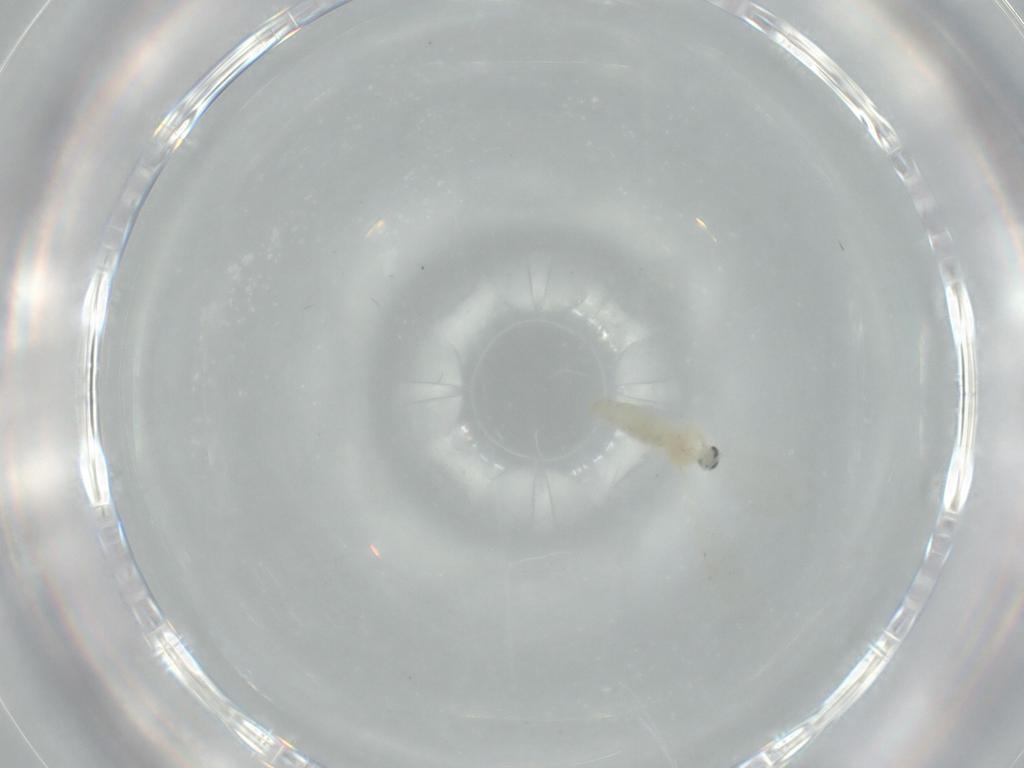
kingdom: Animalia
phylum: Arthropoda
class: Insecta
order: Diptera
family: Cecidomyiidae
